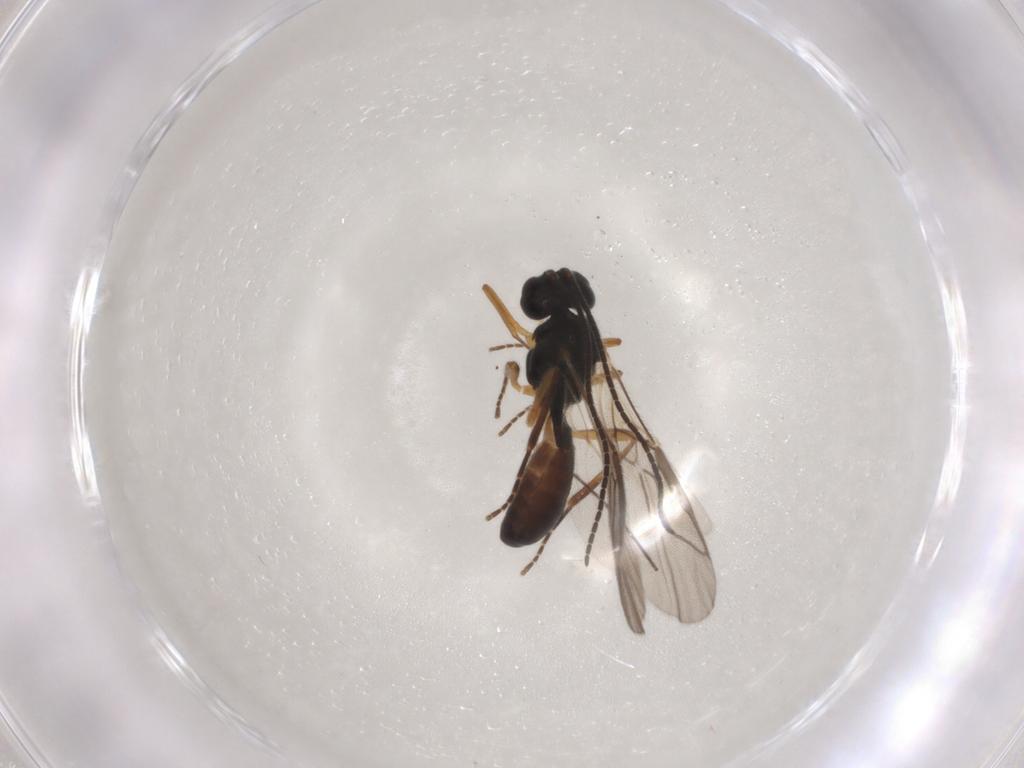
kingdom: Animalia
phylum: Arthropoda
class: Insecta
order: Hymenoptera
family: Braconidae
